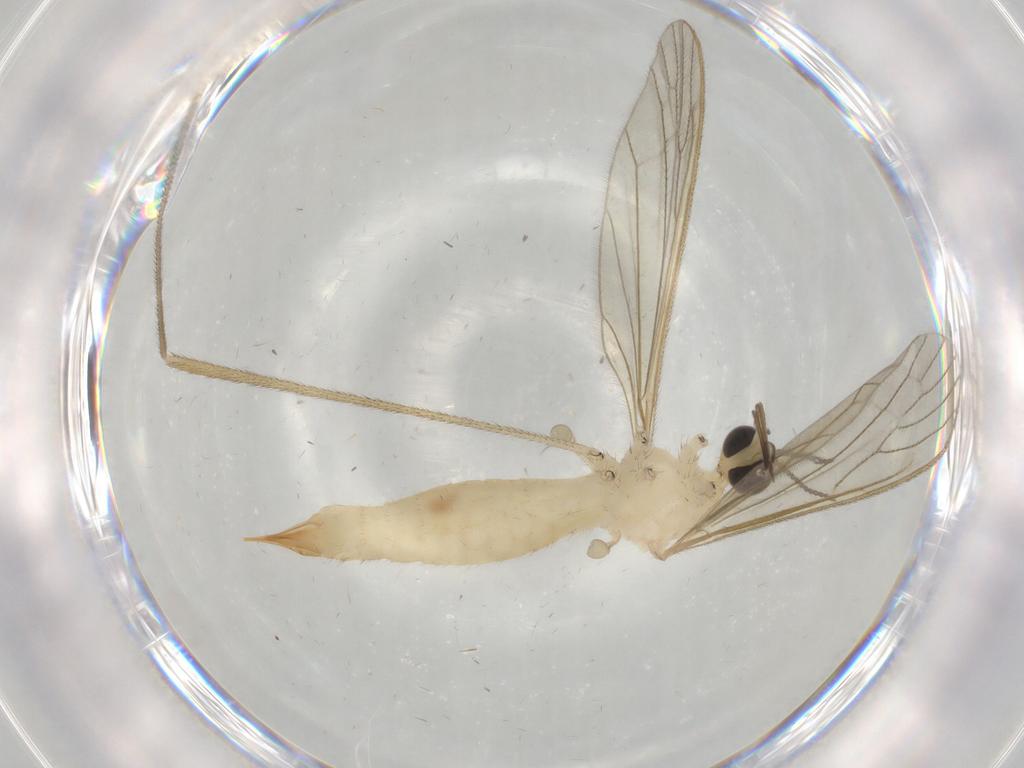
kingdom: Animalia
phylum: Arthropoda
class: Insecta
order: Diptera
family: Dolichopodidae
